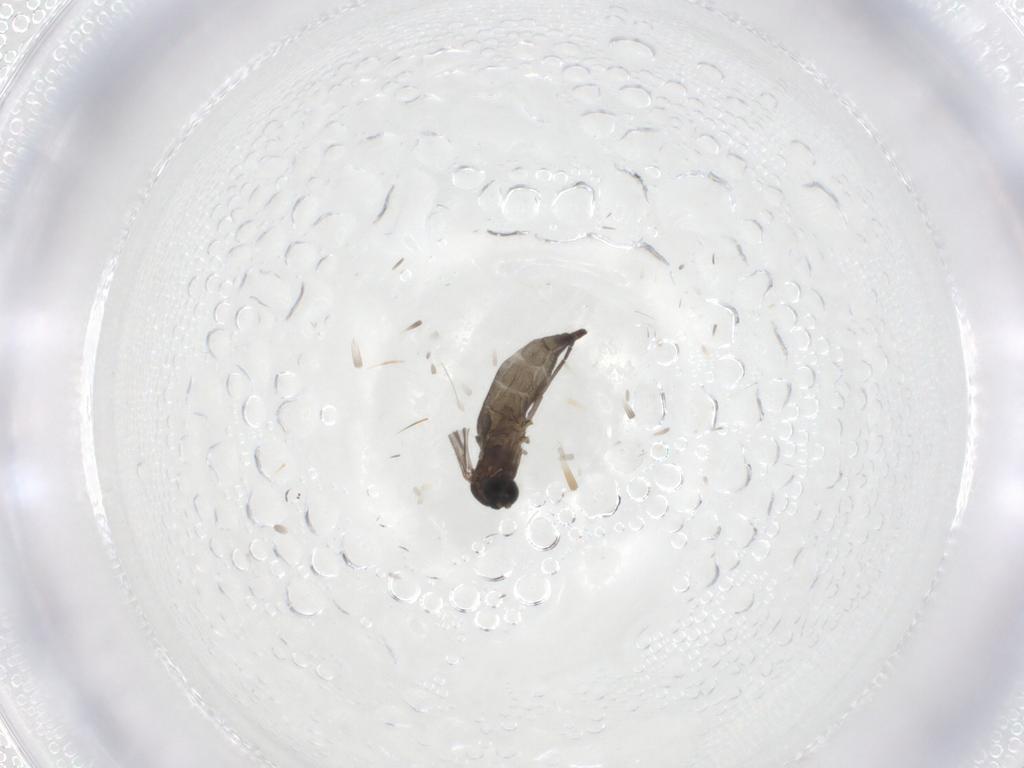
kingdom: Animalia
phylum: Arthropoda
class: Insecta
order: Diptera
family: Sciaridae
